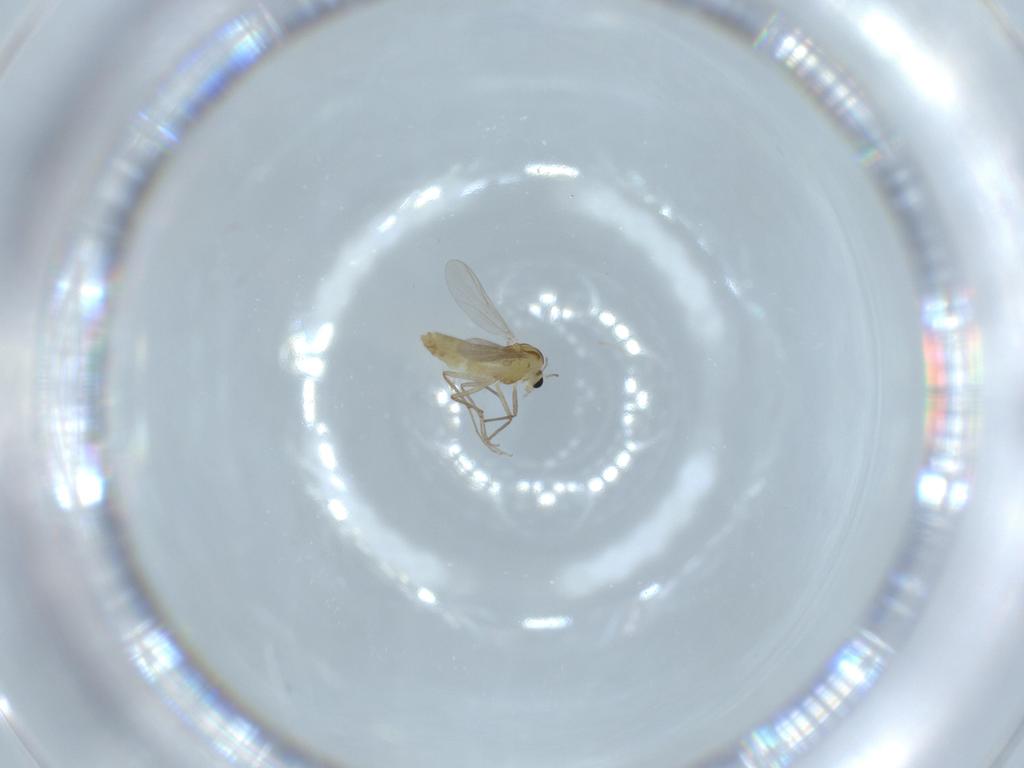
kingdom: Animalia
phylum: Arthropoda
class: Insecta
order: Diptera
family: Chironomidae
